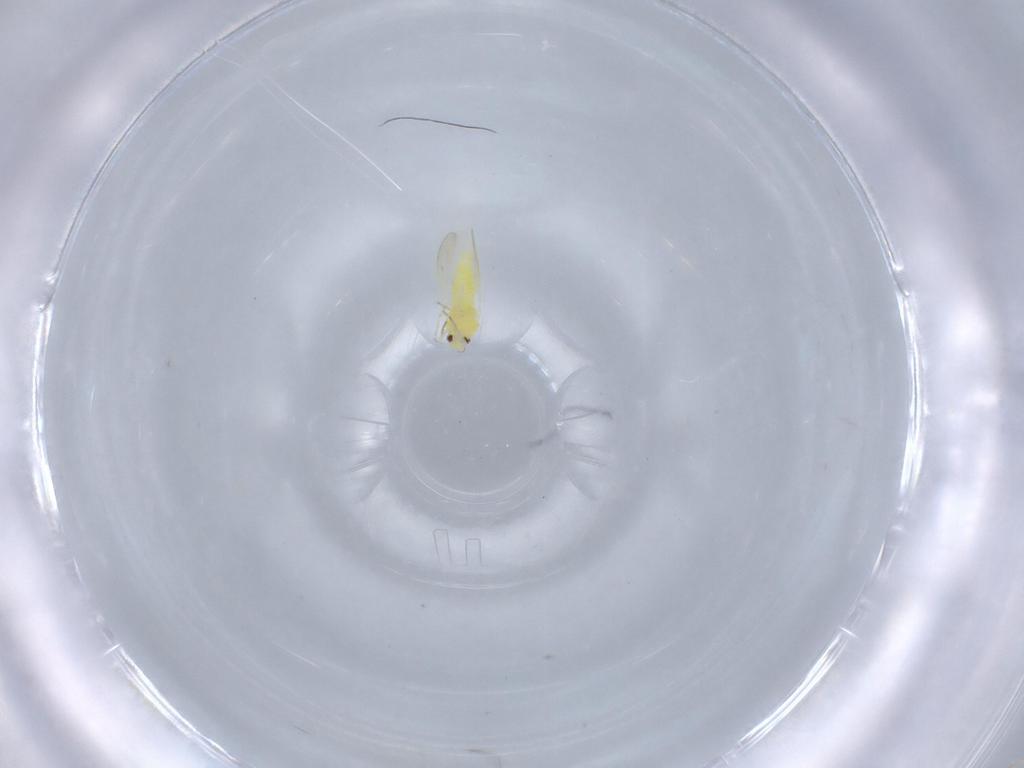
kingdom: Animalia
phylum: Arthropoda
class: Insecta
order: Hemiptera
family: Aleyrodidae
